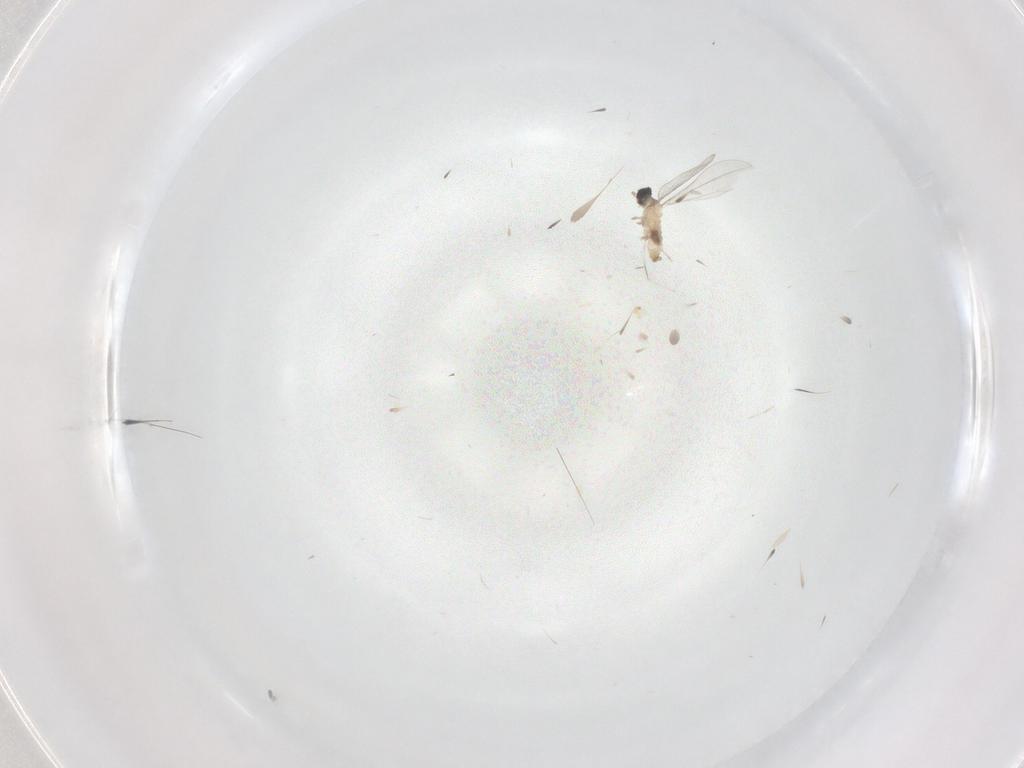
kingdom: Animalia
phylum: Arthropoda
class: Insecta
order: Diptera
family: Cecidomyiidae
